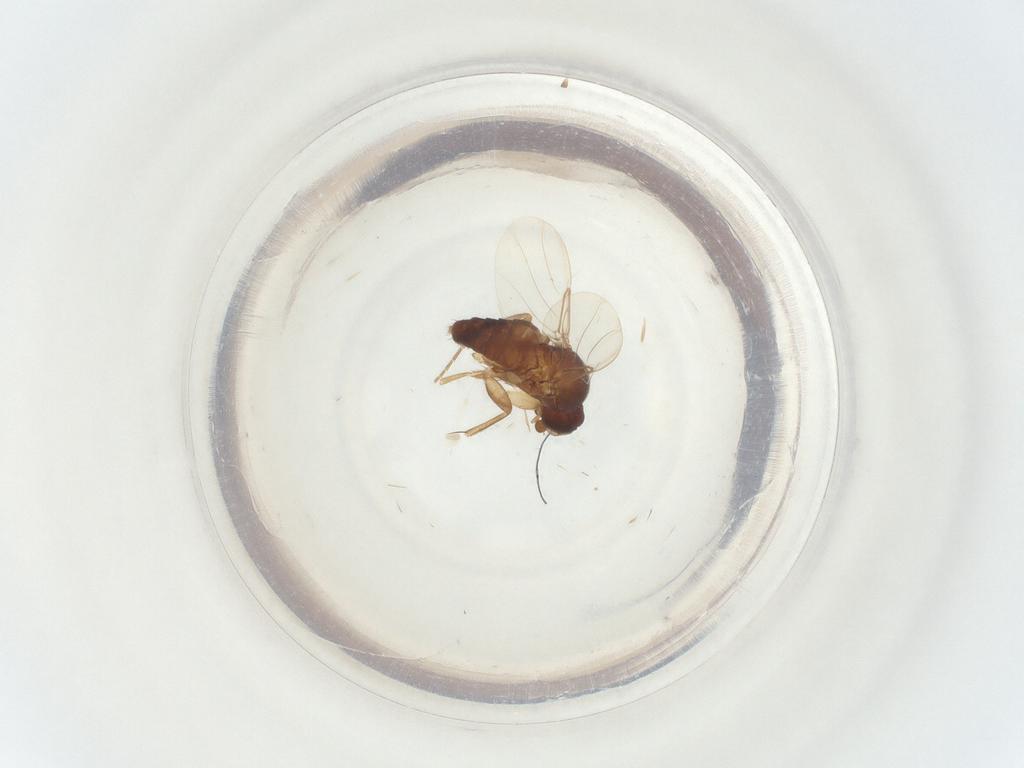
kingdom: Animalia
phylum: Arthropoda
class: Insecta
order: Diptera
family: Phoridae
